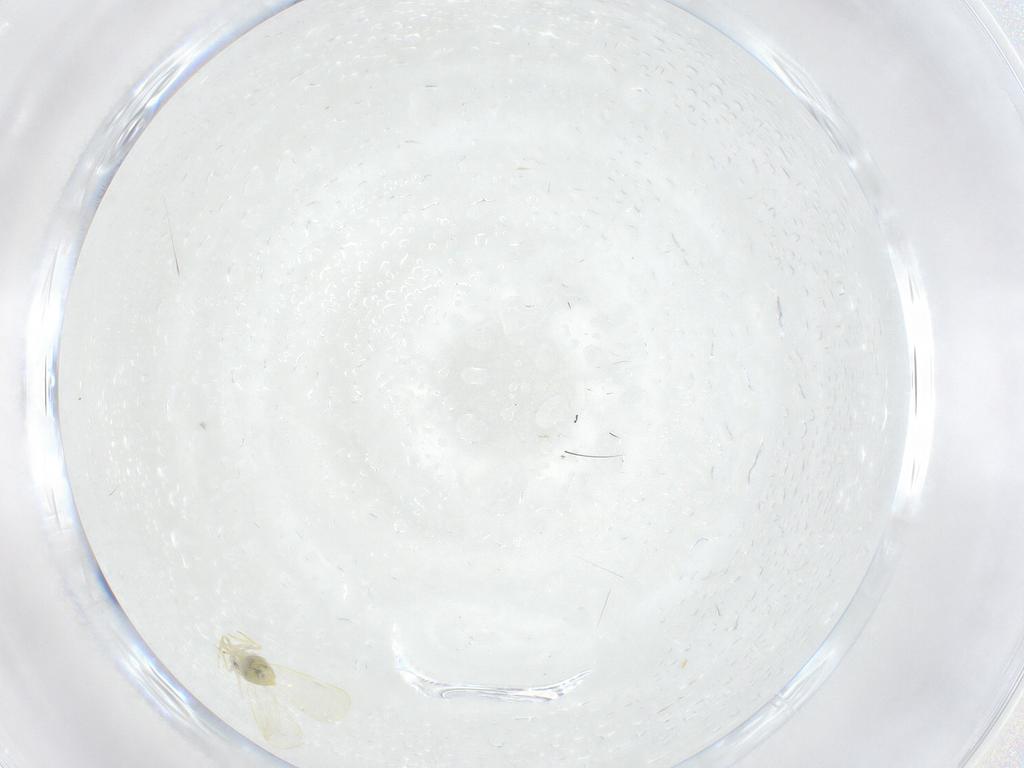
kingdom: Animalia
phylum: Arthropoda
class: Insecta
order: Diptera
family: Ceratopogonidae
